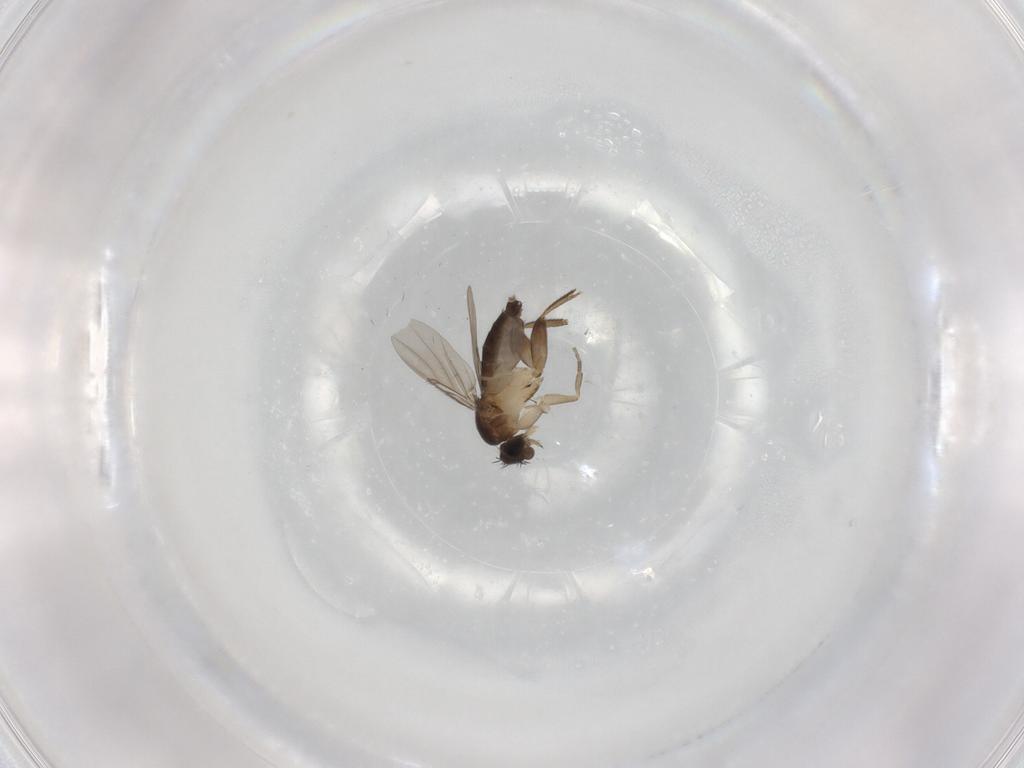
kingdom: Animalia
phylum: Arthropoda
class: Insecta
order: Diptera
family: Phoridae
